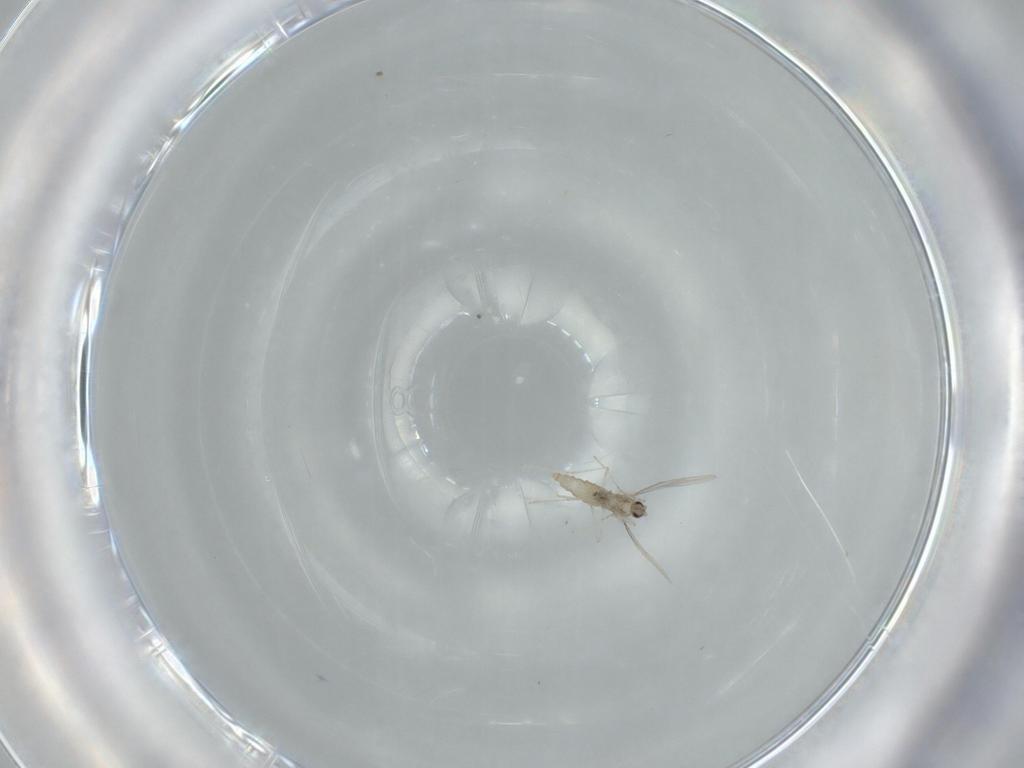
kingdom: Animalia
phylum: Arthropoda
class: Insecta
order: Diptera
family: Cecidomyiidae
